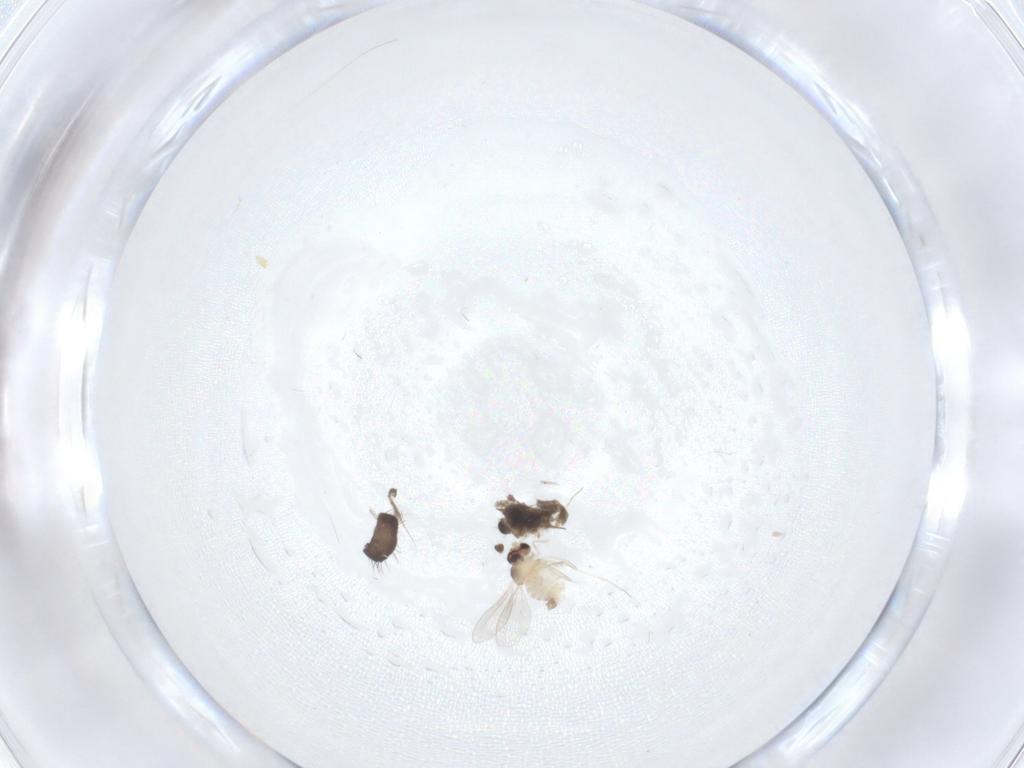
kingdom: Animalia
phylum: Arthropoda
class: Insecta
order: Diptera
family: Cecidomyiidae
